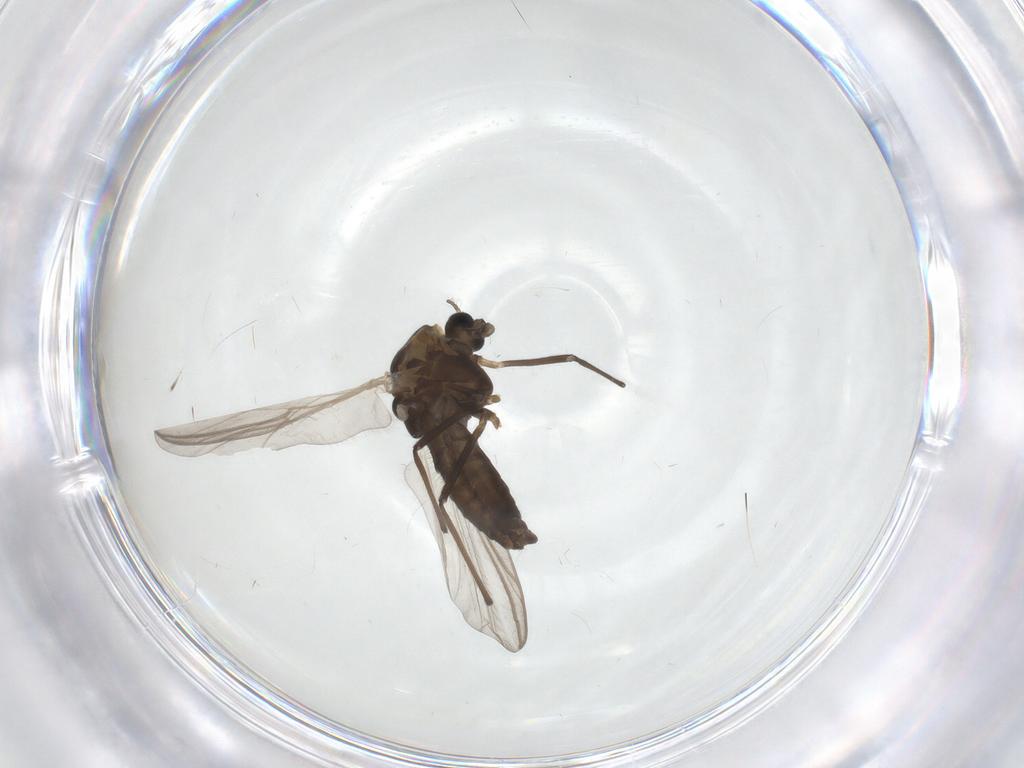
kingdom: Animalia
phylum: Arthropoda
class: Insecta
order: Diptera
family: Chironomidae
